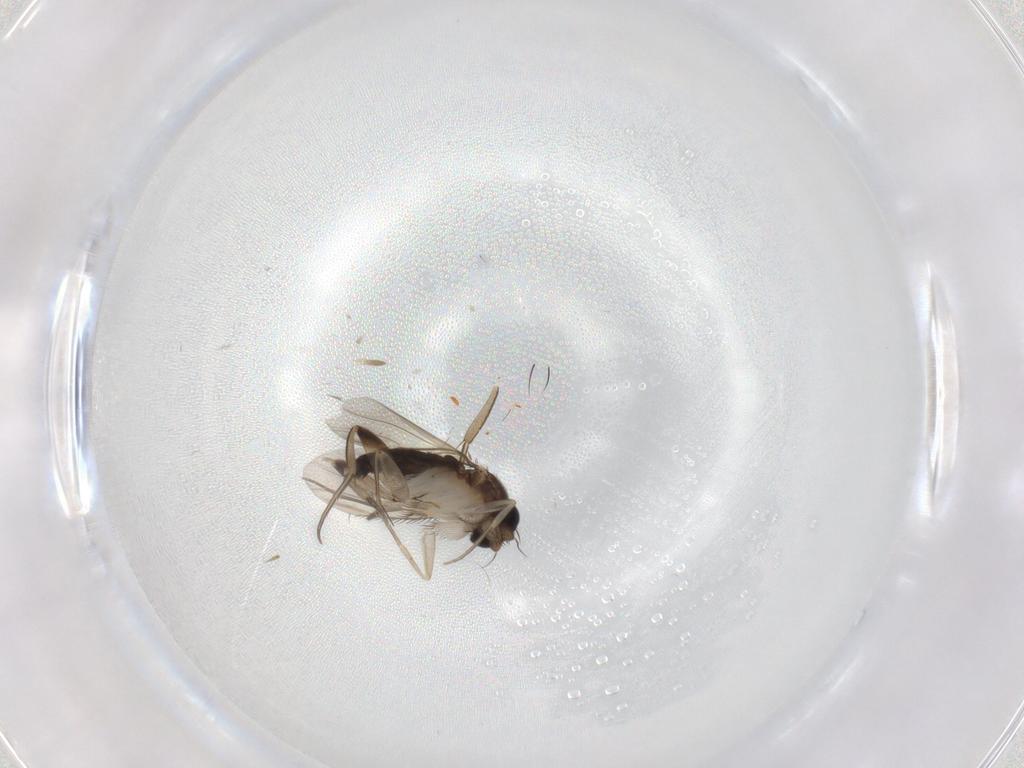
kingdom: Animalia
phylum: Arthropoda
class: Insecta
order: Diptera
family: Phoridae
